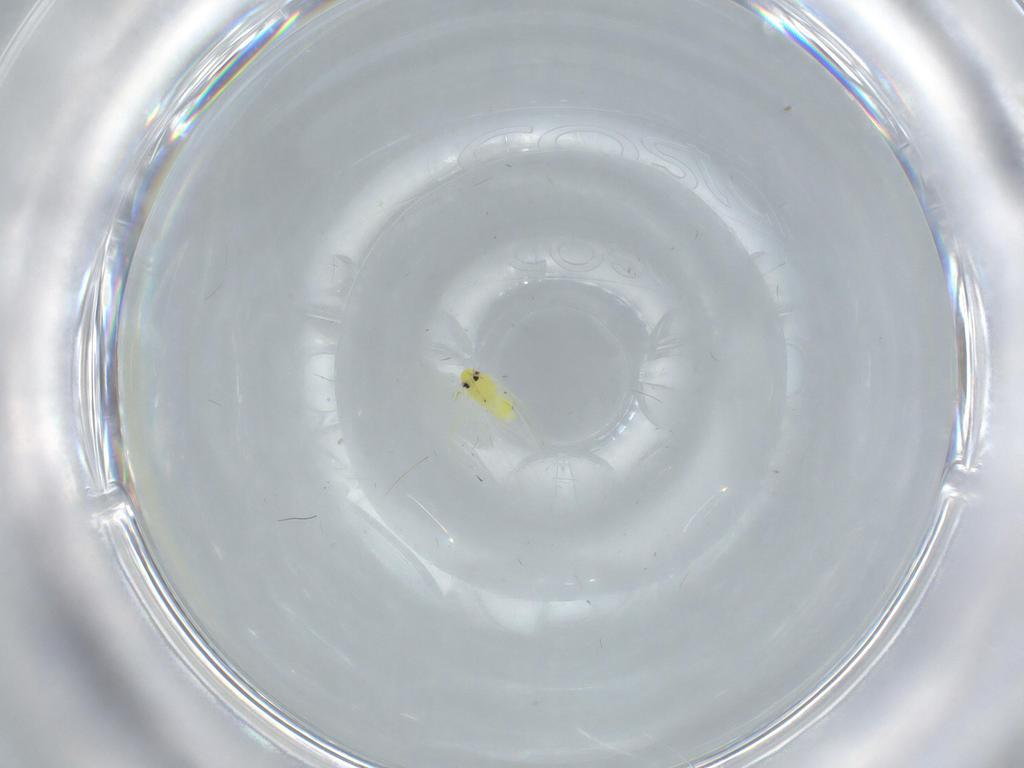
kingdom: Animalia
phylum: Arthropoda
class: Insecta
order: Hemiptera
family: Aleyrodidae
